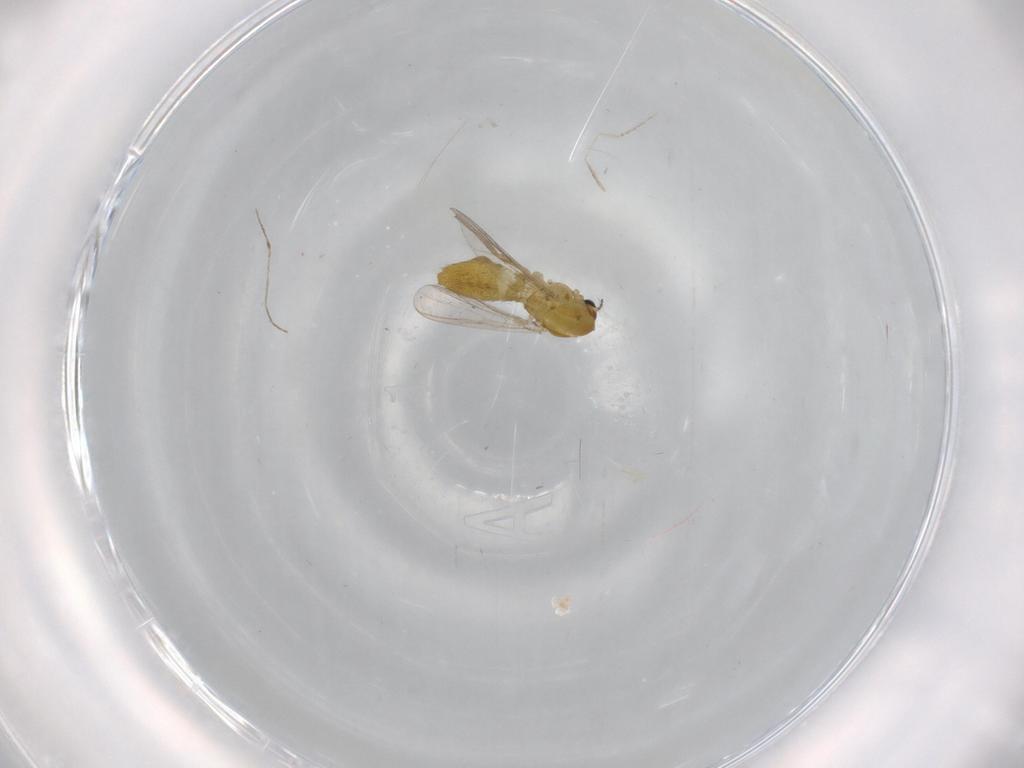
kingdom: Animalia
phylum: Arthropoda
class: Insecta
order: Diptera
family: Chironomidae
